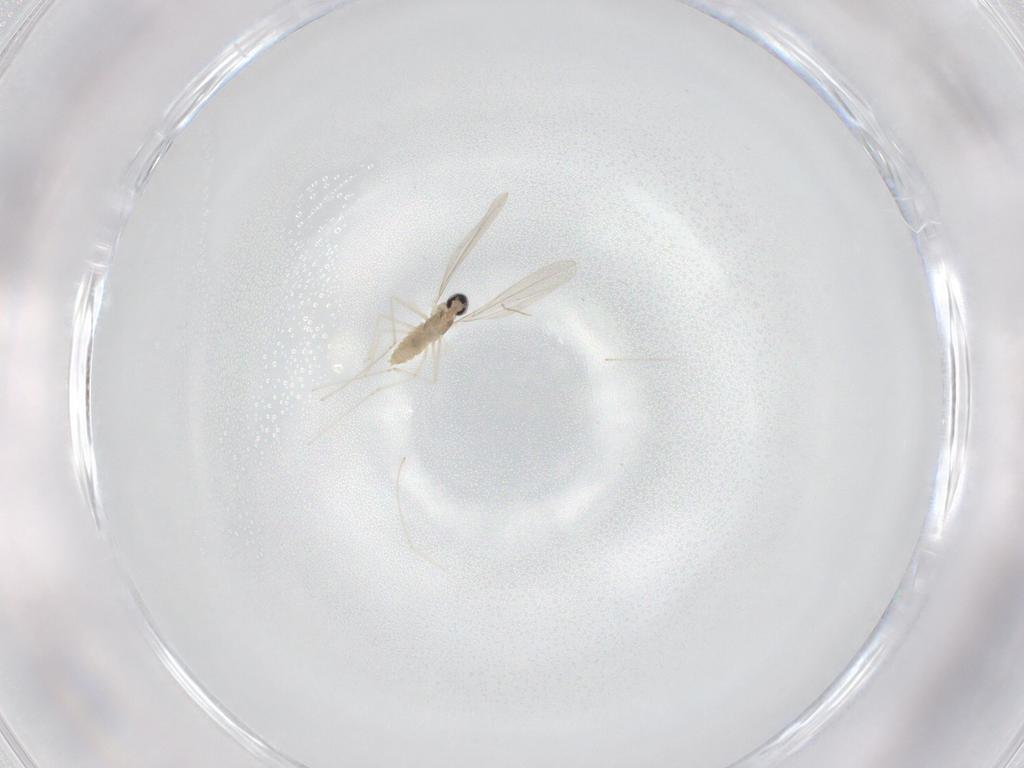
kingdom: Animalia
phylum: Arthropoda
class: Insecta
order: Diptera
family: Cecidomyiidae
